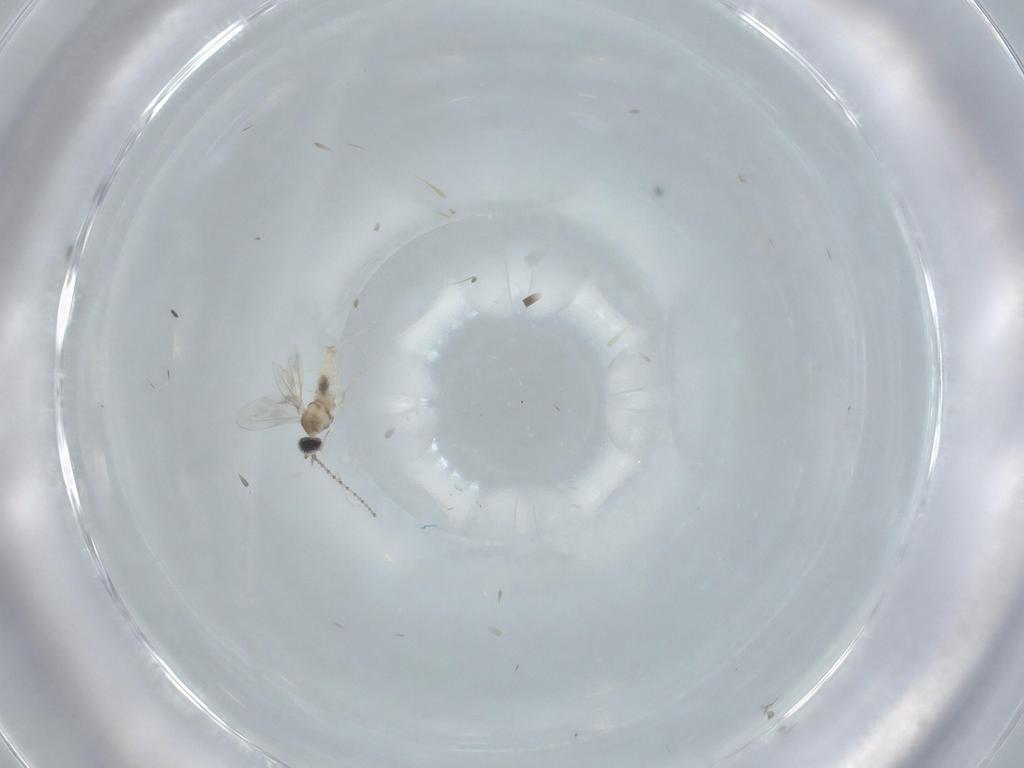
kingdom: Animalia
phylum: Arthropoda
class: Insecta
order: Diptera
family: Cecidomyiidae
